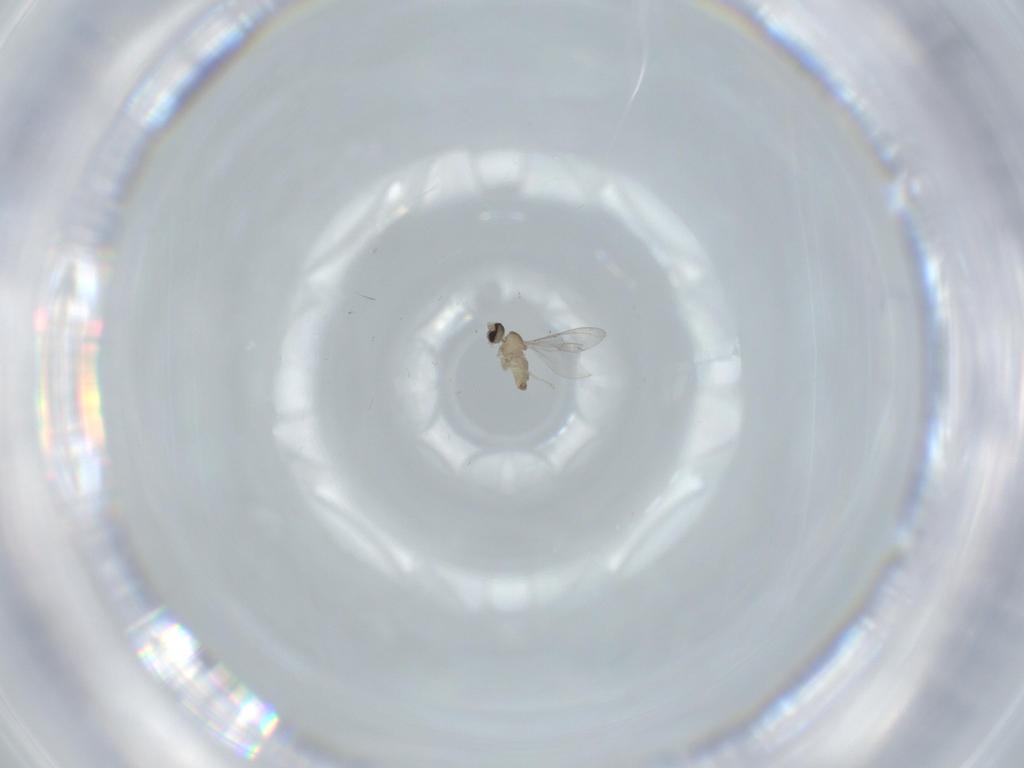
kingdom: Animalia
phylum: Arthropoda
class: Insecta
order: Diptera
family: Cecidomyiidae
